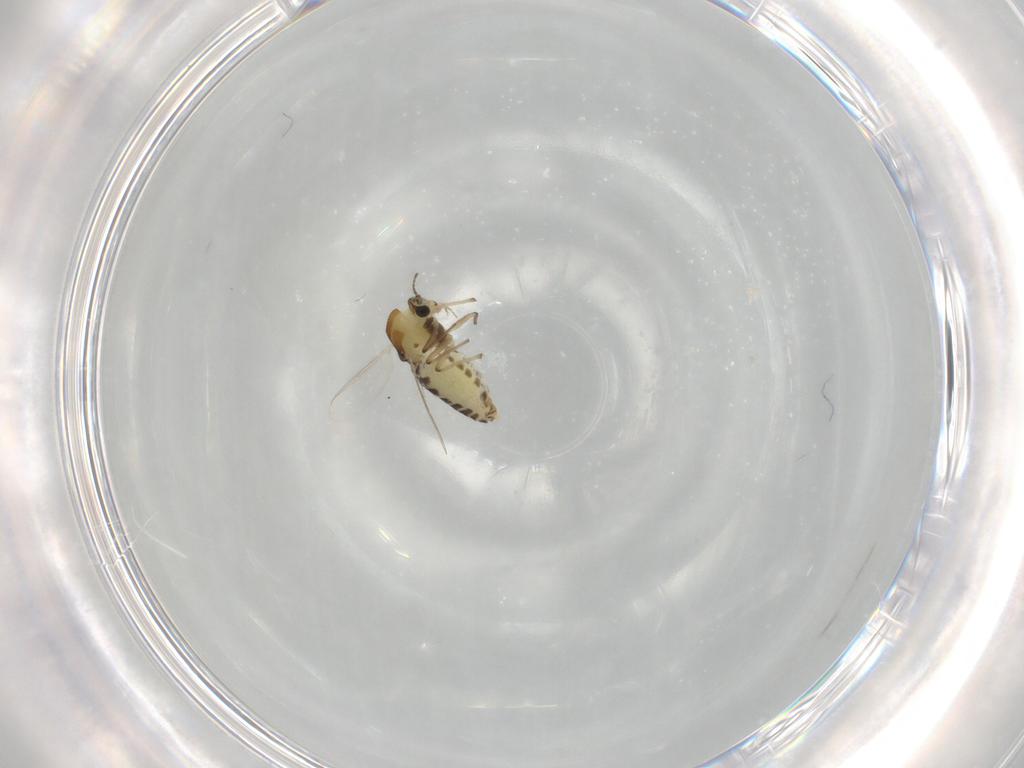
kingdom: Animalia
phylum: Arthropoda
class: Insecta
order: Diptera
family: Chironomidae
